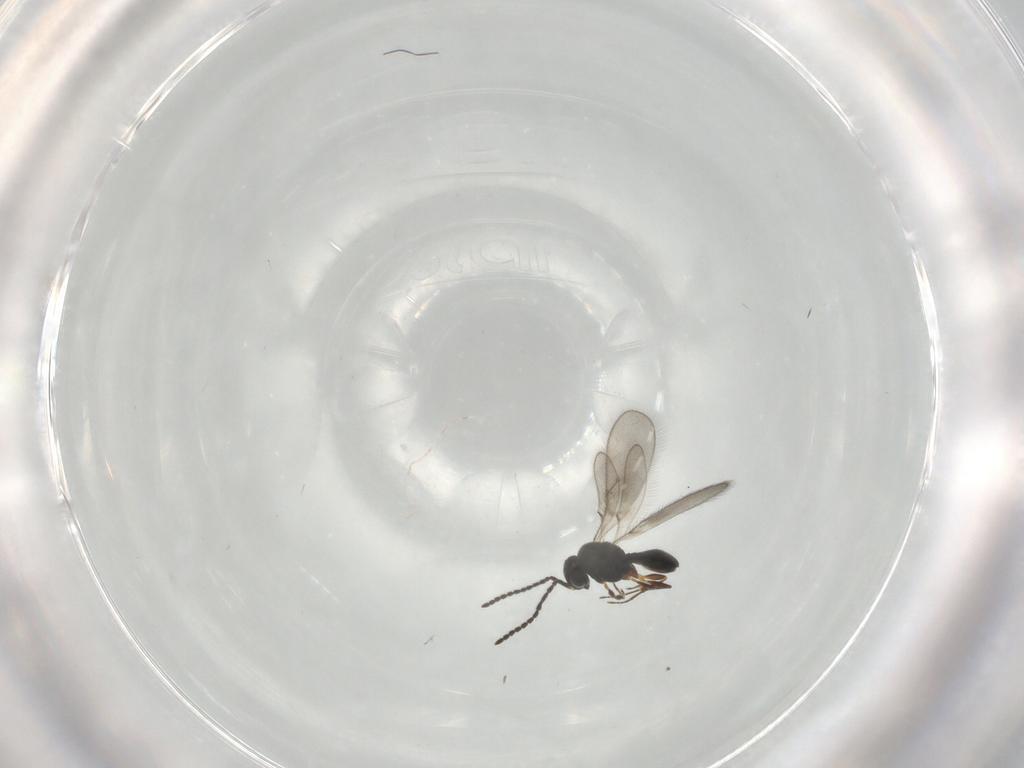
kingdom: Animalia
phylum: Arthropoda
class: Insecta
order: Hymenoptera
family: Scelionidae
